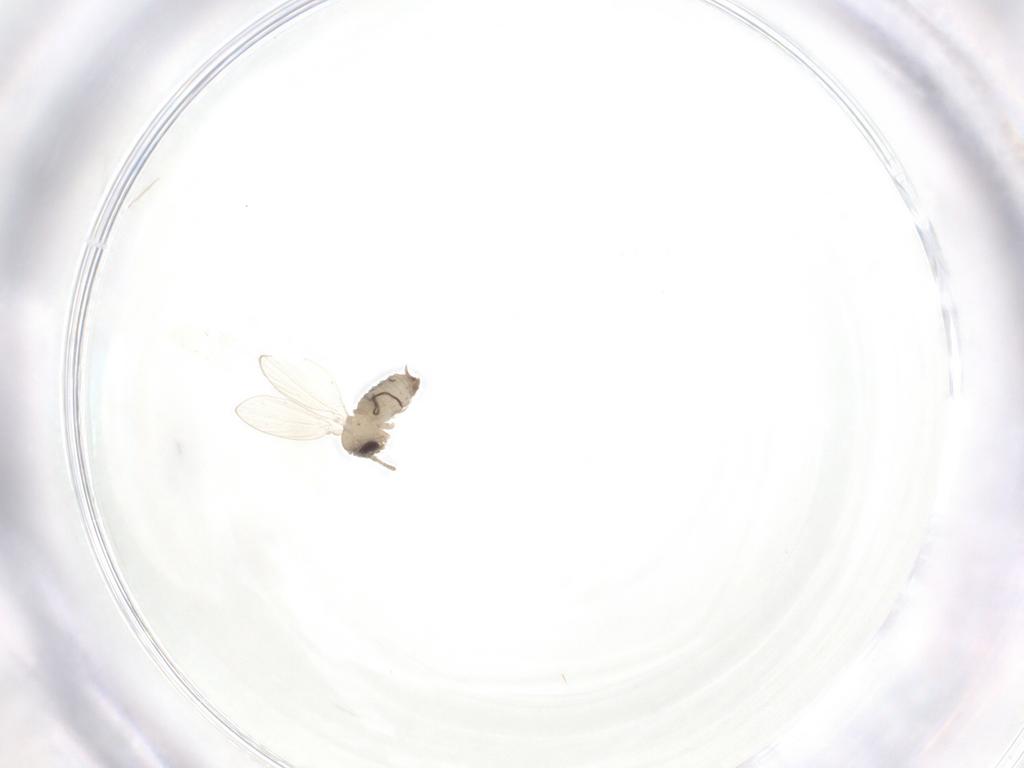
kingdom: Animalia
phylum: Arthropoda
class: Insecta
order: Diptera
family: Psychodidae
